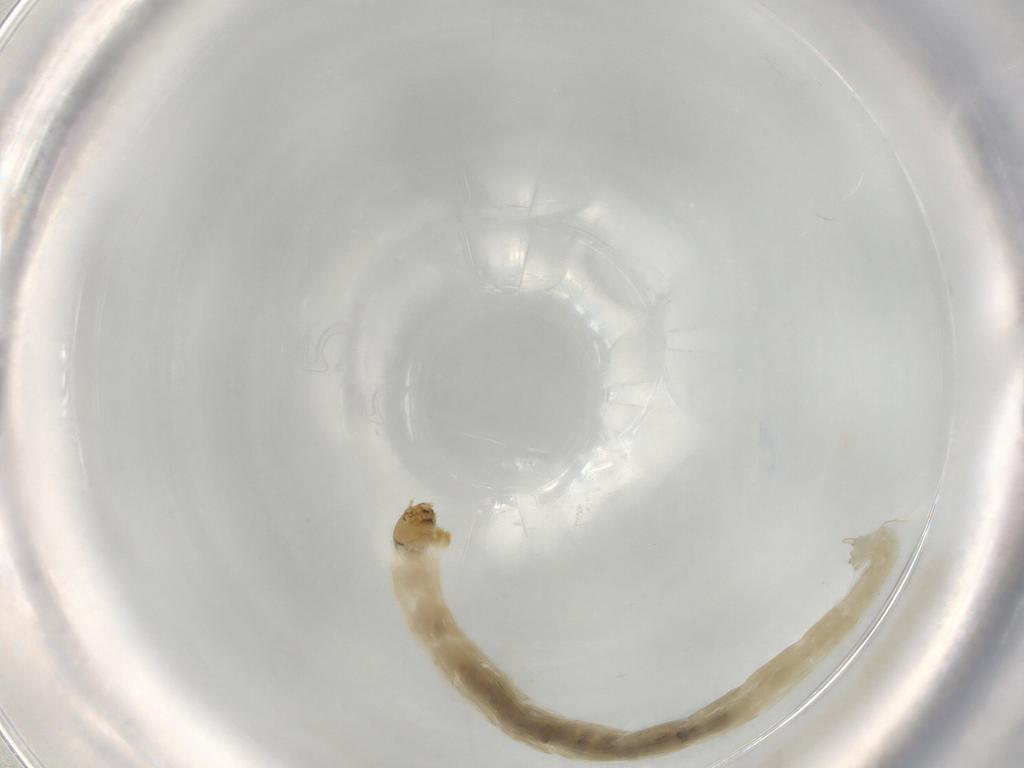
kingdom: Animalia
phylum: Arthropoda
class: Insecta
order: Diptera
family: Chironomidae
